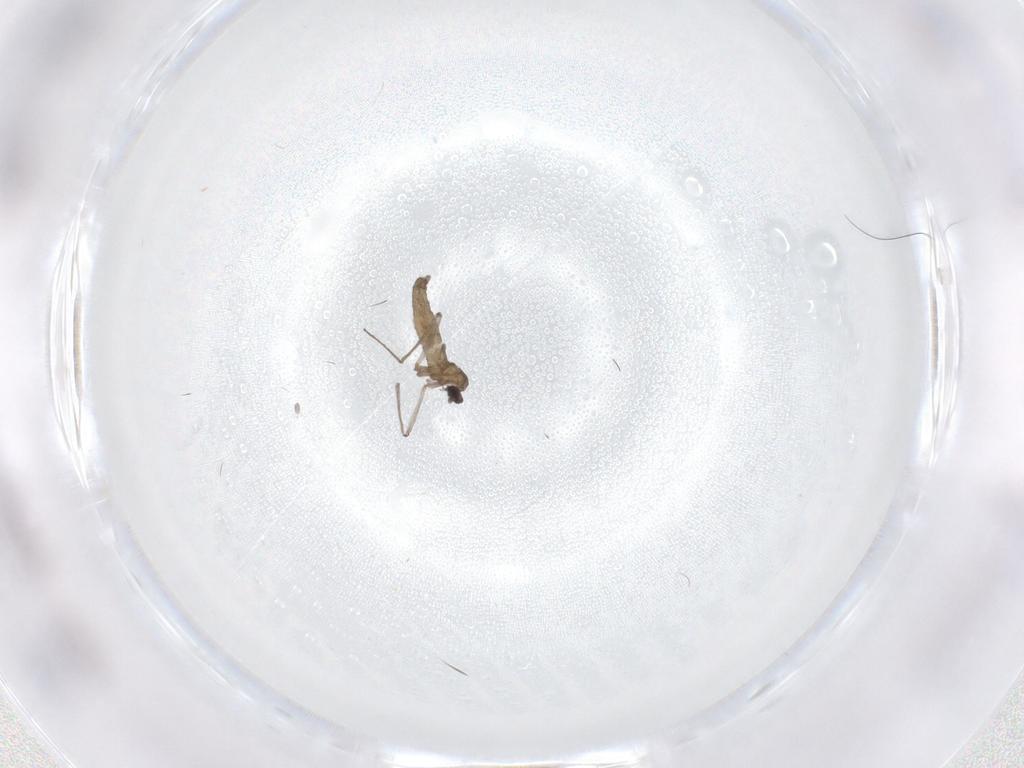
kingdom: Animalia
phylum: Arthropoda
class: Insecta
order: Diptera
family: Cecidomyiidae
